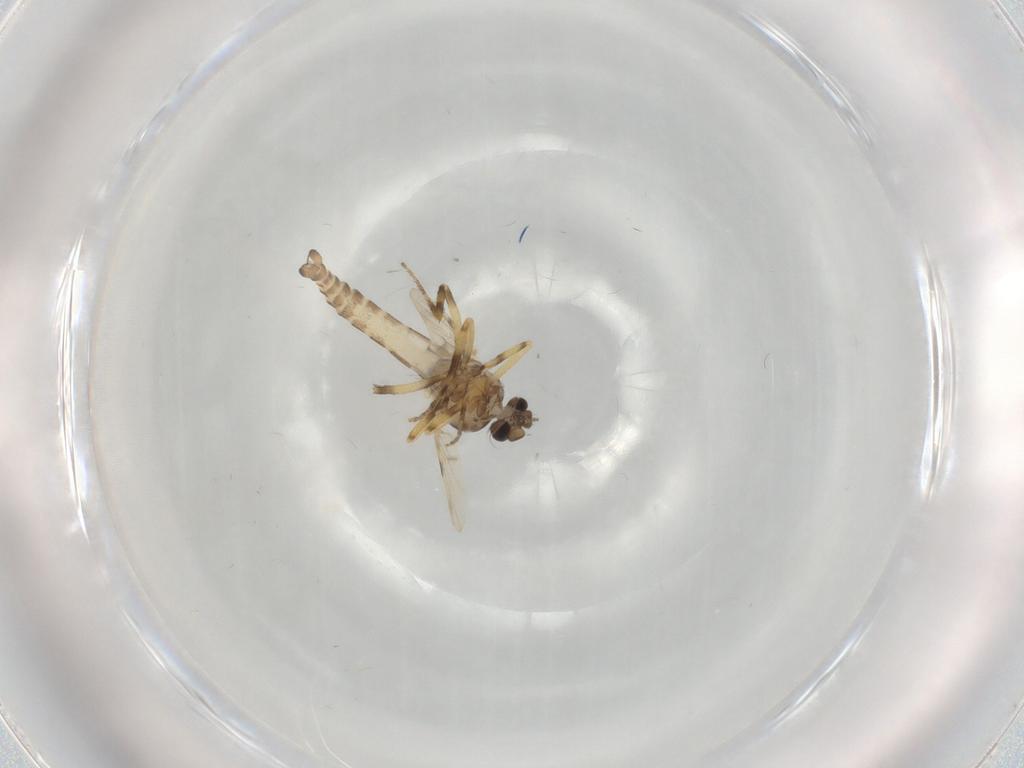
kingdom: Animalia
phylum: Arthropoda
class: Insecta
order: Diptera
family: Ceratopogonidae
